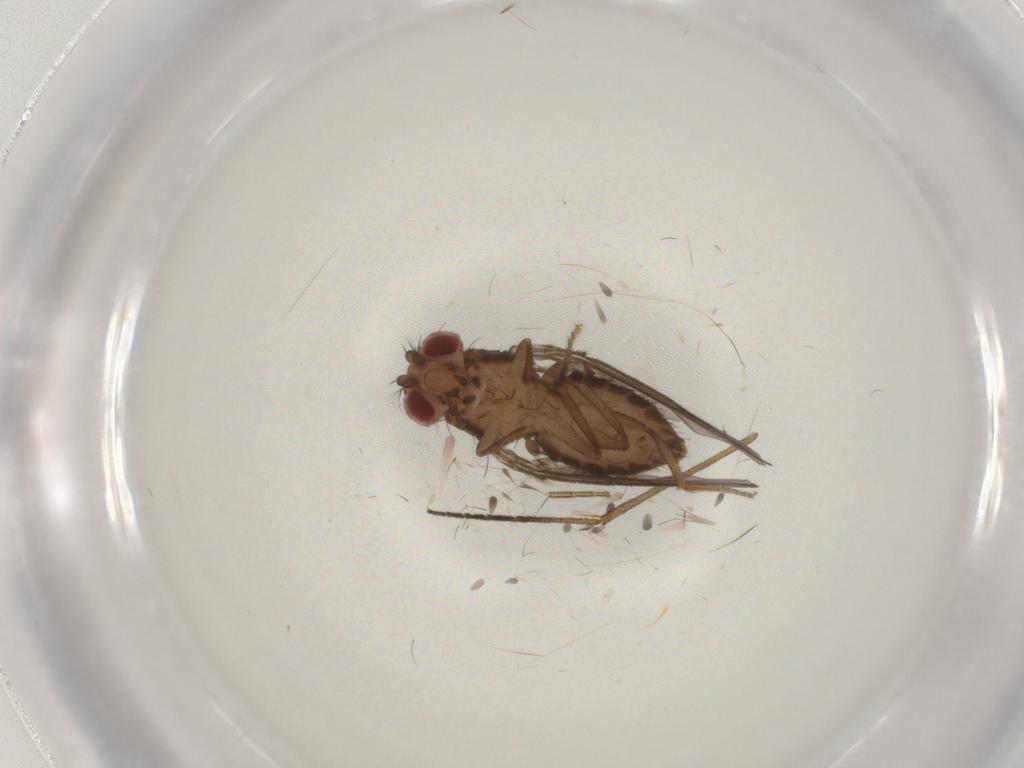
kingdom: Animalia
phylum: Arthropoda
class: Insecta
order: Diptera
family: Drosophilidae
